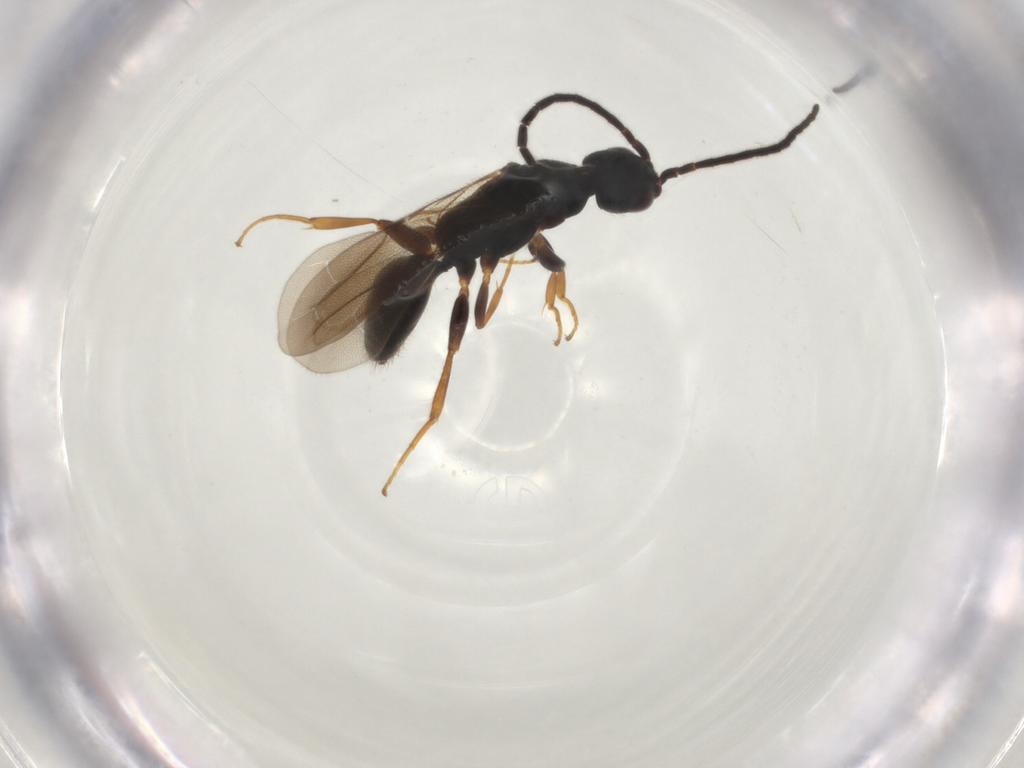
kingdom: Animalia
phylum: Arthropoda
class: Insecta
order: Hymenoptera
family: Bethylidae
